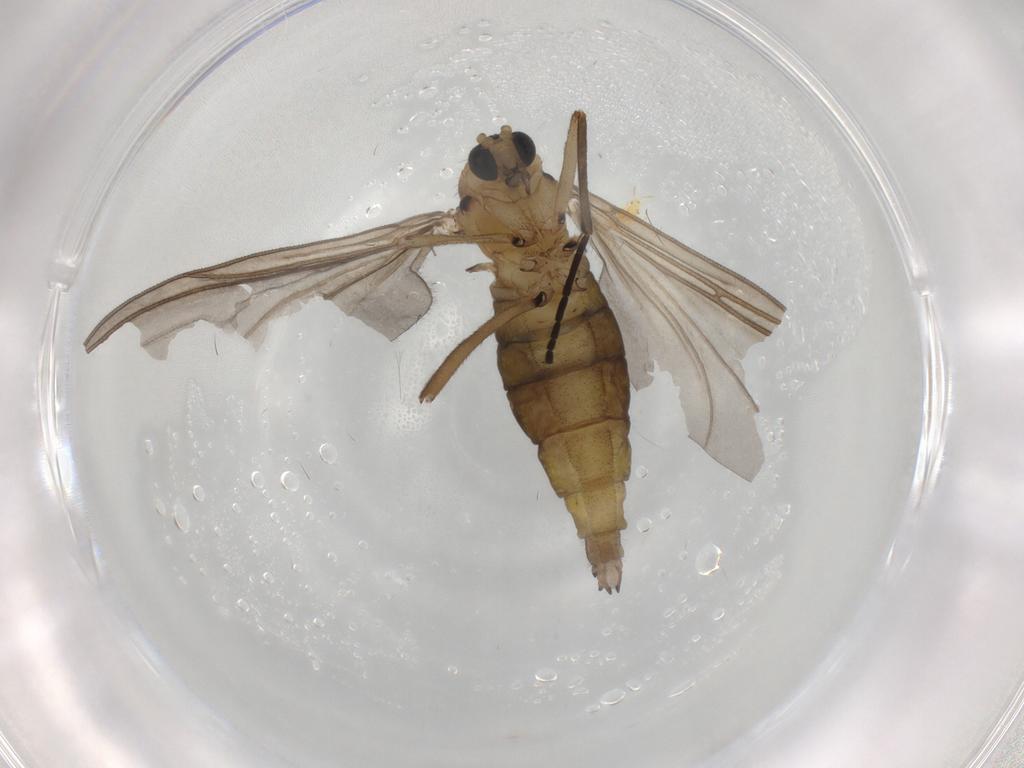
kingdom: Animalia
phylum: Arthropoda
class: Insecta
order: Diptera
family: Sciaridae
